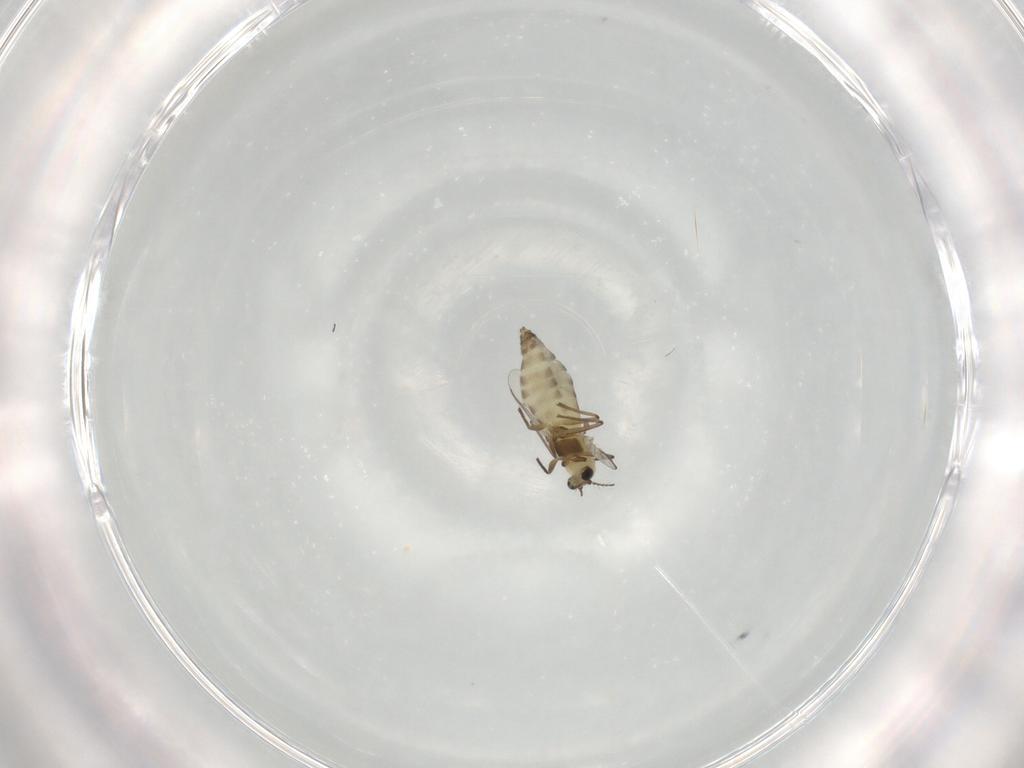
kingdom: Animalia
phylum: Arthropoda
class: Insecta
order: Diptera
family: Chironomidae
